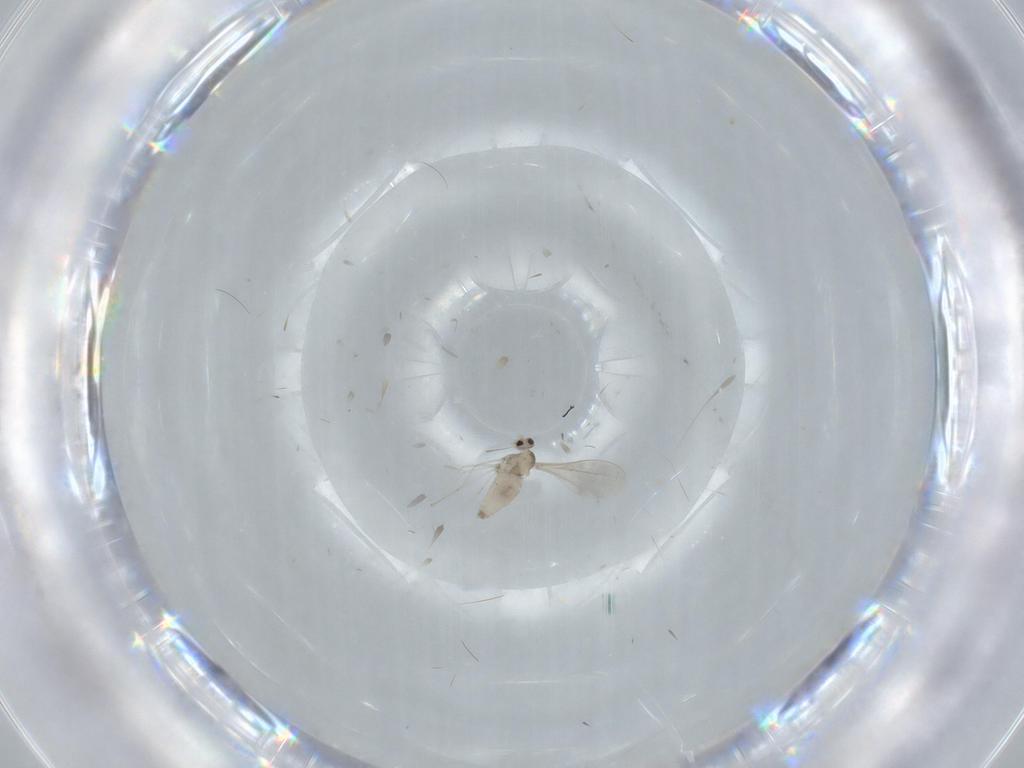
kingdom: Animalia
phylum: Arthropoda
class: Insecta
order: Diptera
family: Cecidomyiidae
